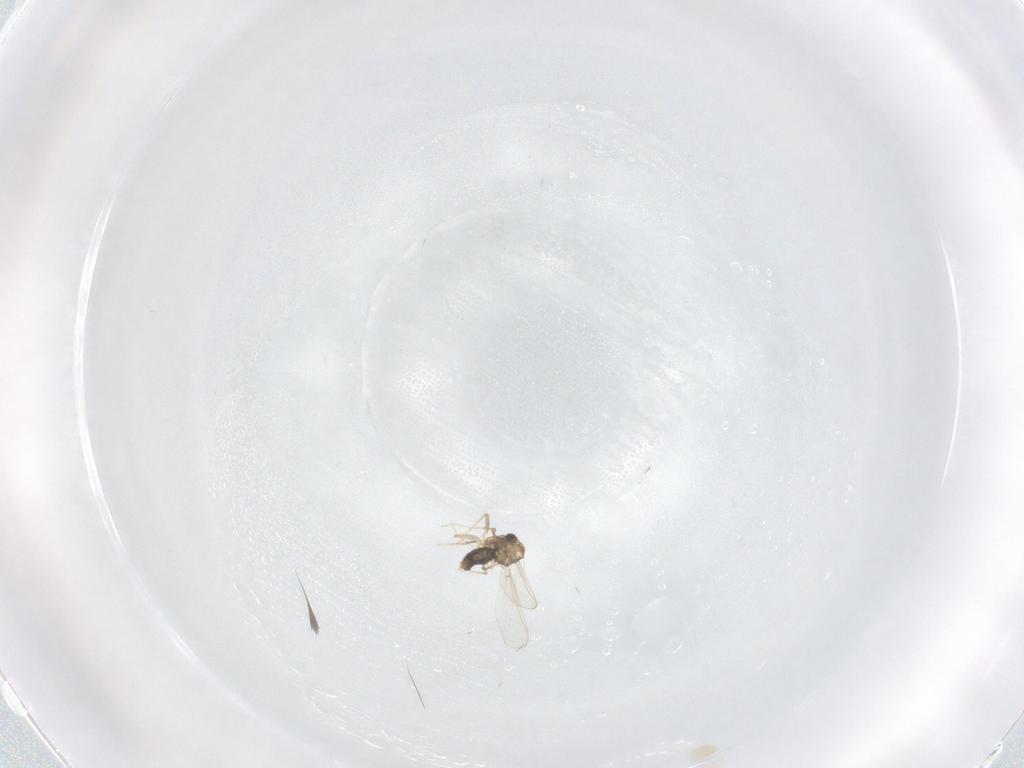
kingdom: Animalia
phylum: Arthropoda
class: Insecta
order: Diptera
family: Chironomidae
